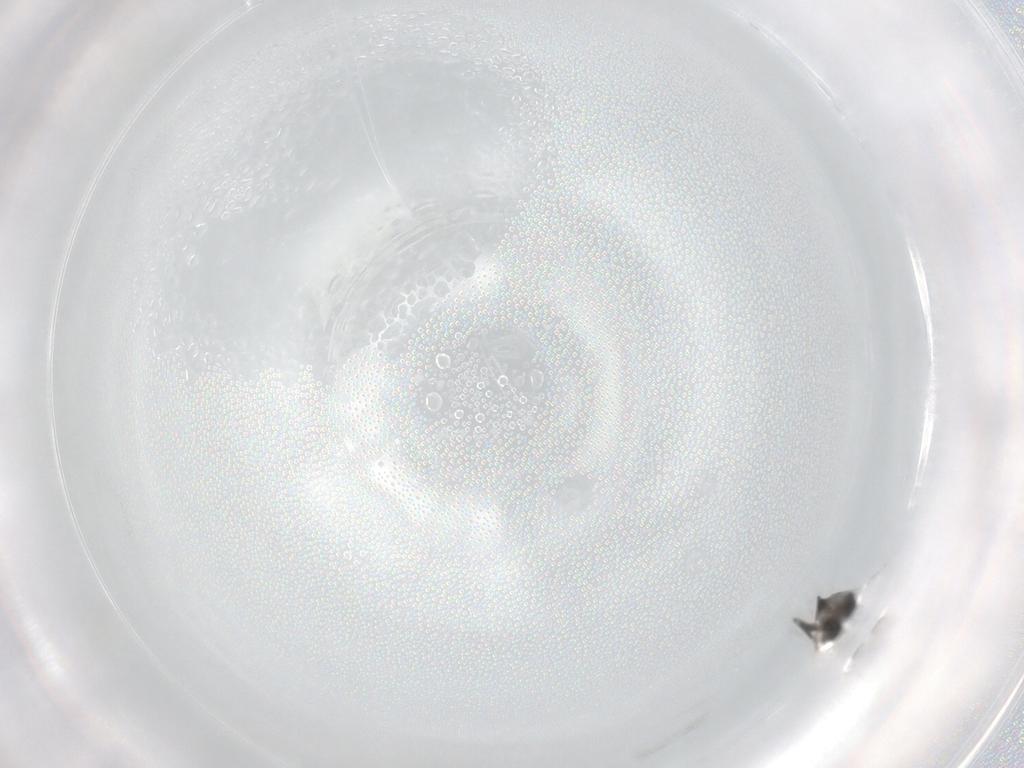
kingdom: Animalia
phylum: Arthropoda
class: Insecta
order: Diptera
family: Chironomidae
